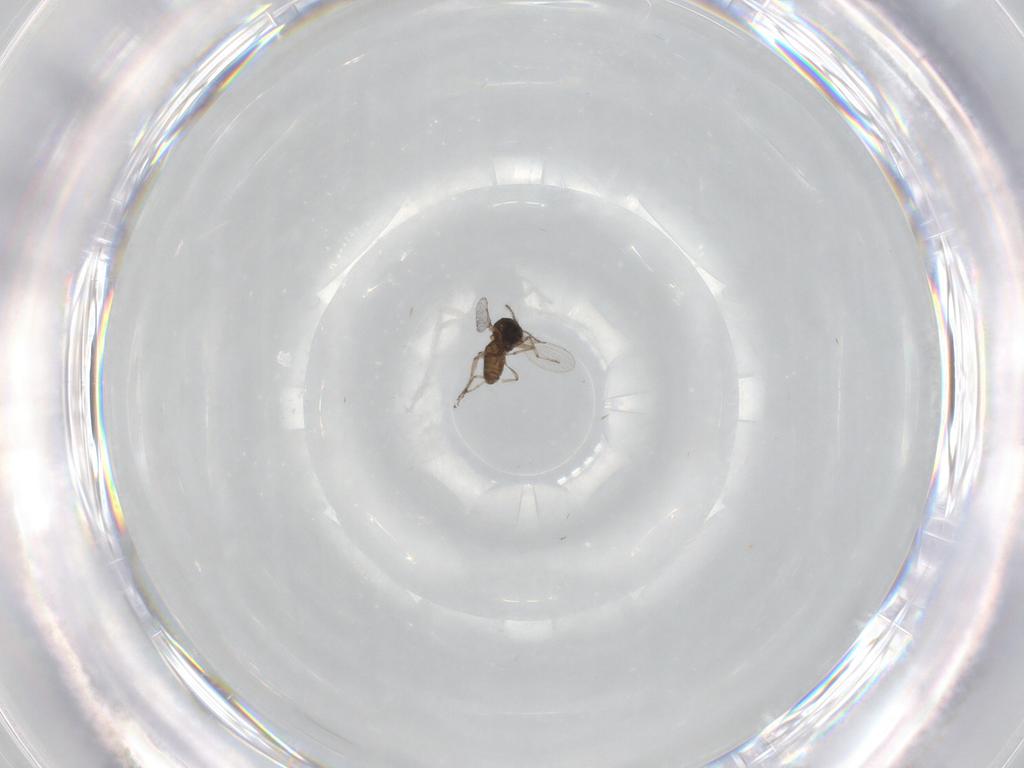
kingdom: Animalia
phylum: Arthropoda
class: Insecta
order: Diptera
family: Ceratopogonidae
